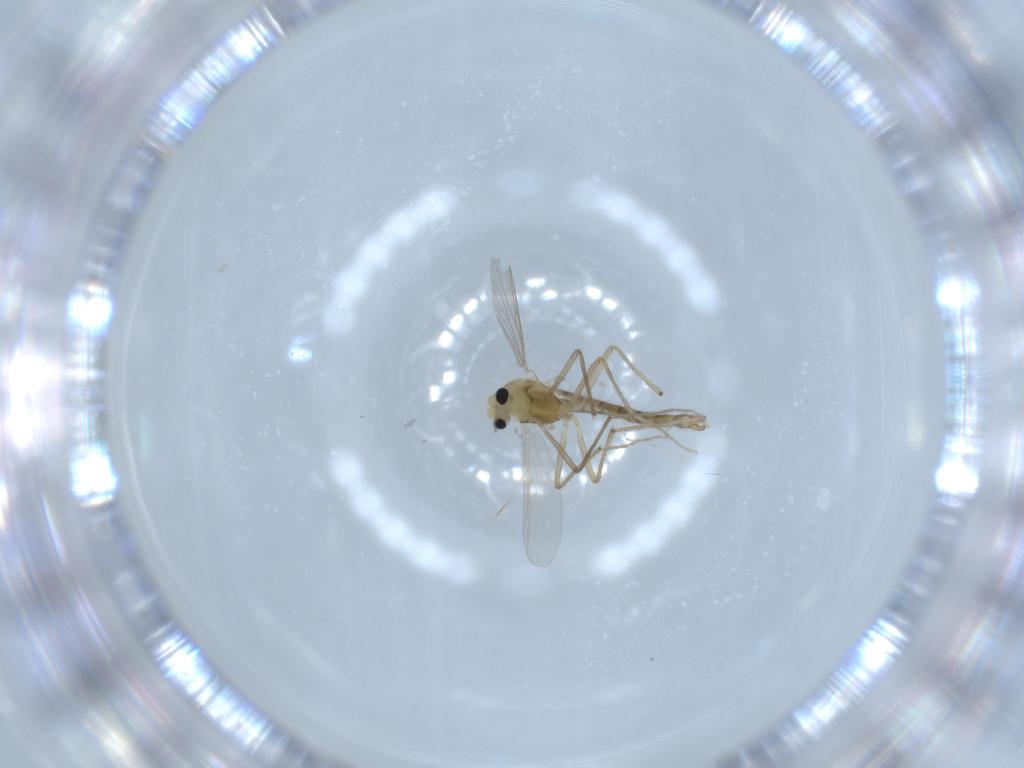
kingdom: Animalia
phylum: Arthropoda
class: Insecta
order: Diptera
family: Chironomidae
